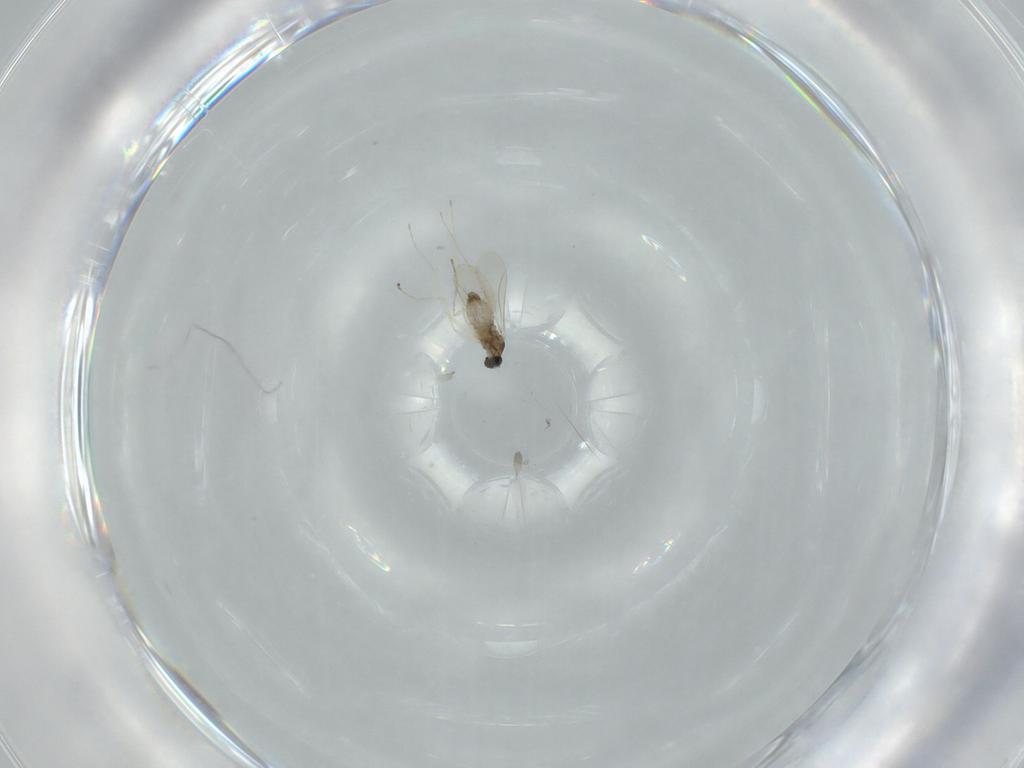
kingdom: Animalia
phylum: Arthropoda
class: Insecta
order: Diptera
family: Cecidomyiidae
